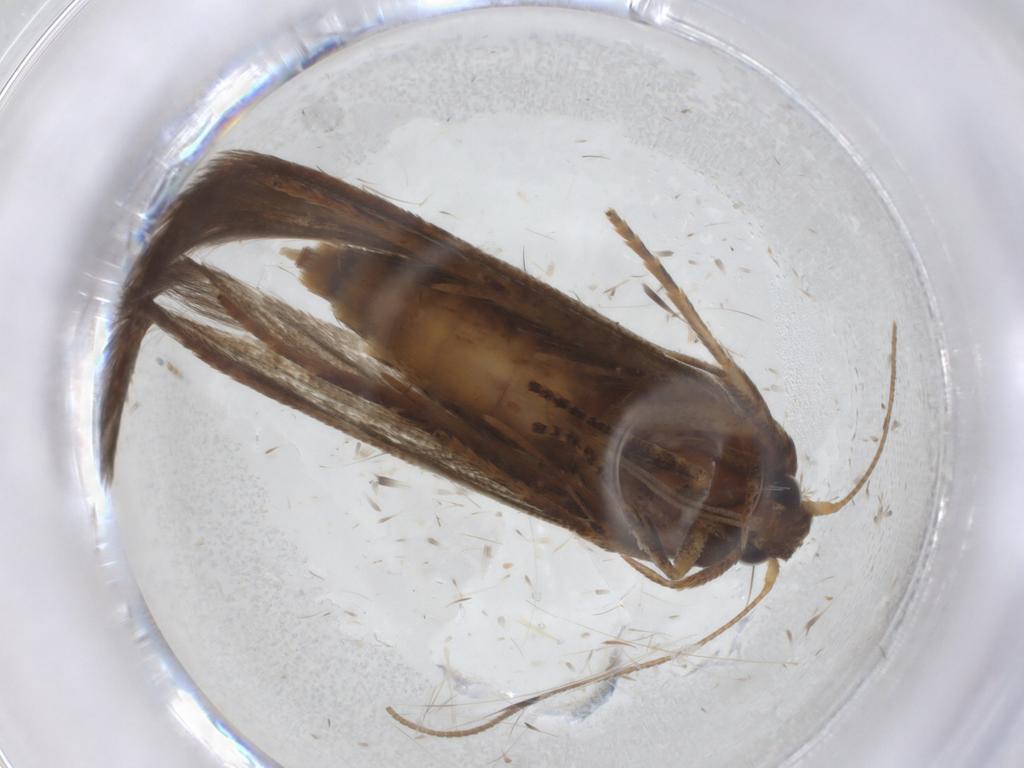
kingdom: Animalia
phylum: Arthropoda
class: Insecta
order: Lepidoptera
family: Blastobasidae
